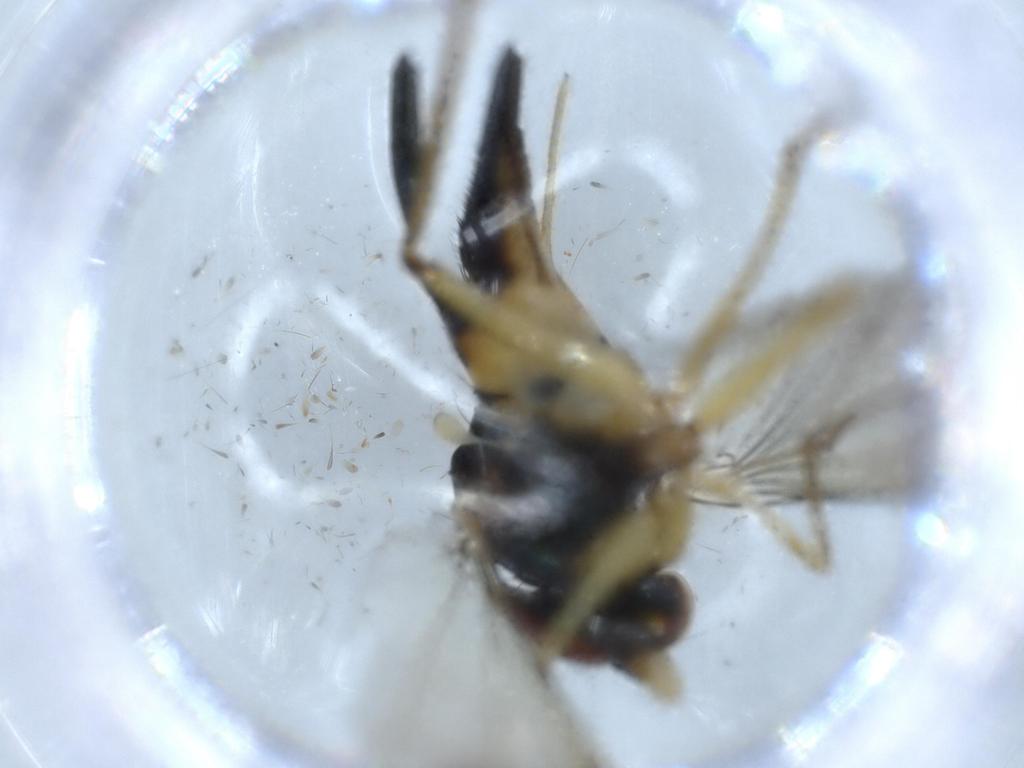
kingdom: Animalia
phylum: Arthropoda
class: Insecta
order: Diptera
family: Dolichopodidae
